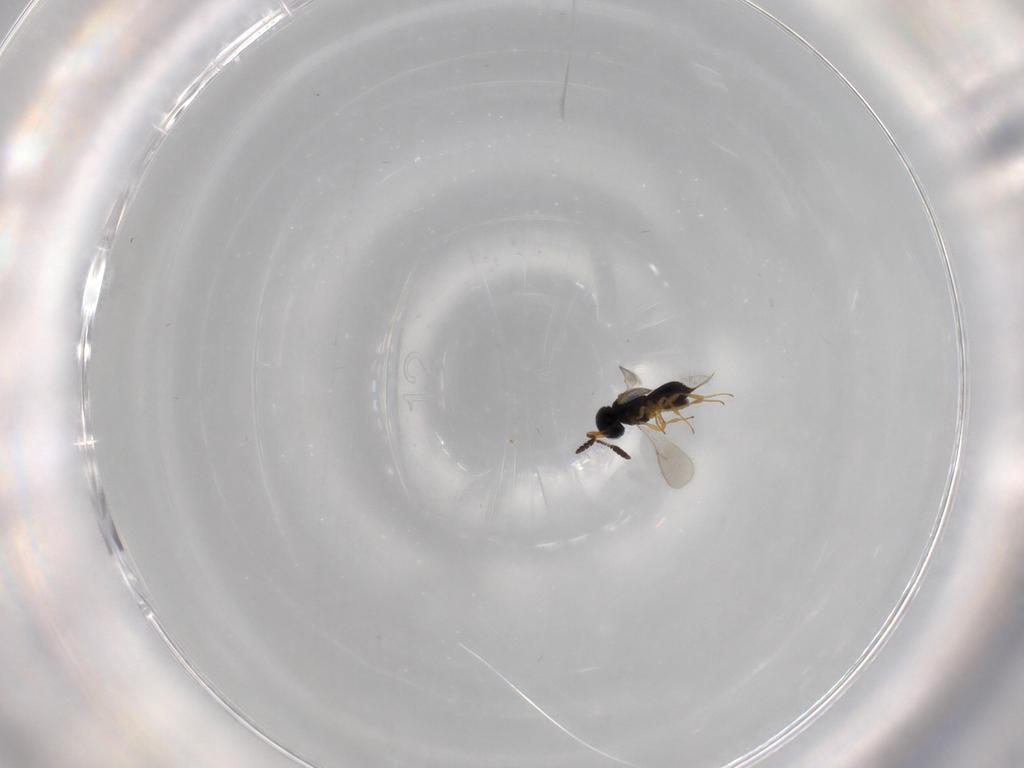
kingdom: Animalia
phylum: Arthropoda
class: Insecta
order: Hymenoptera
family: Scelionidae
